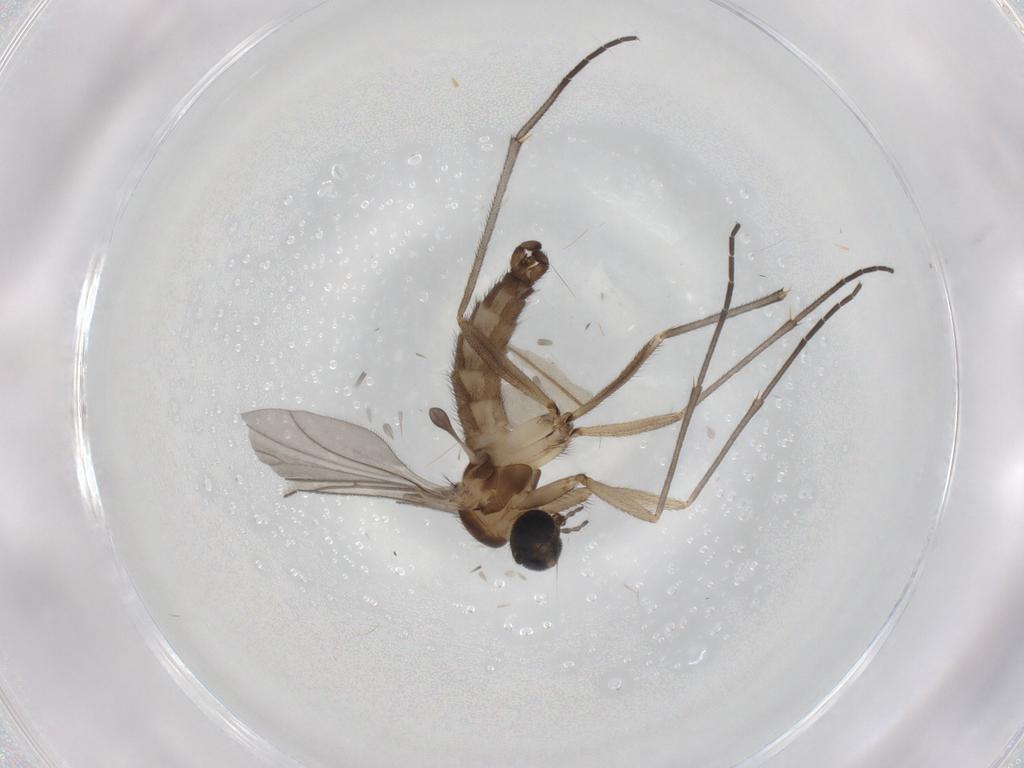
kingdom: Animalia
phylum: Arthropoda
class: Insecta
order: Diptera
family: Sciaridae
